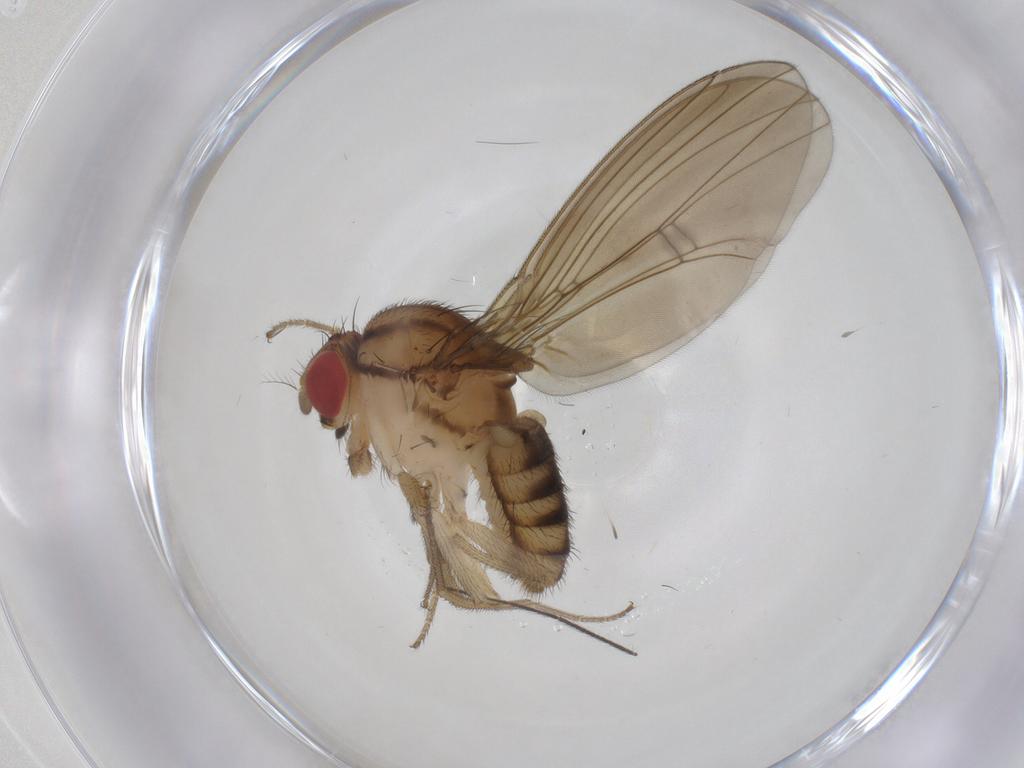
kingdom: Animalia
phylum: Arthropoda
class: Insecta
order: Diptera
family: Drosophilidae
